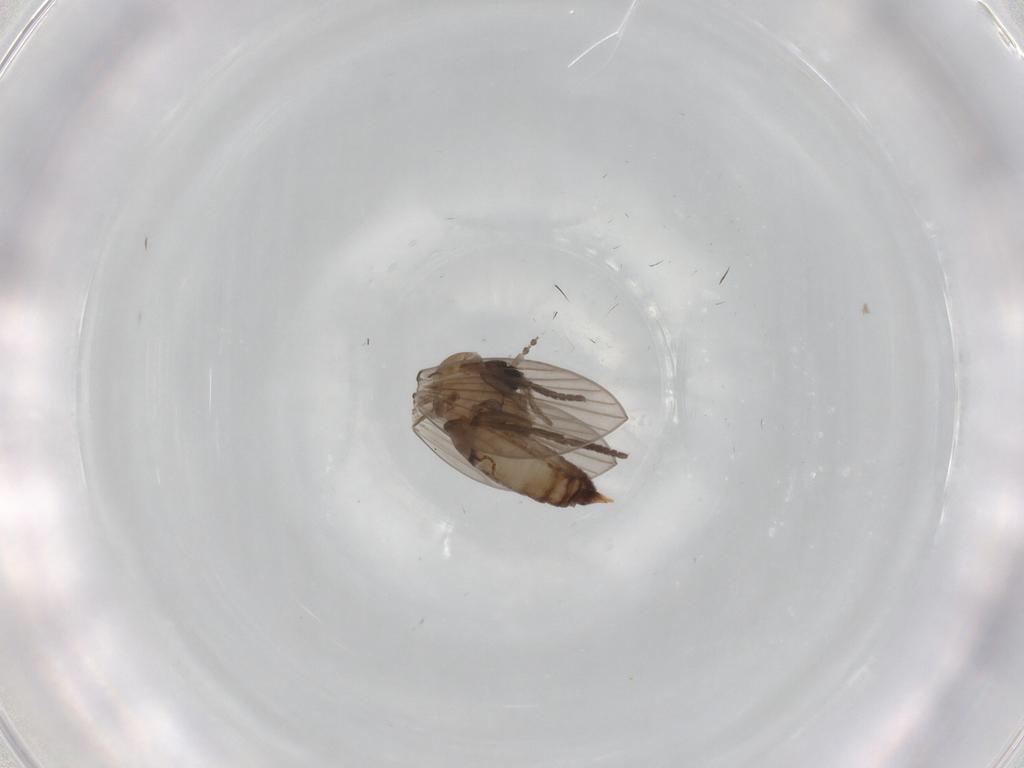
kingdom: Animalia
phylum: Arthropoda
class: Insecta
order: Diptera
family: Psychodidae
